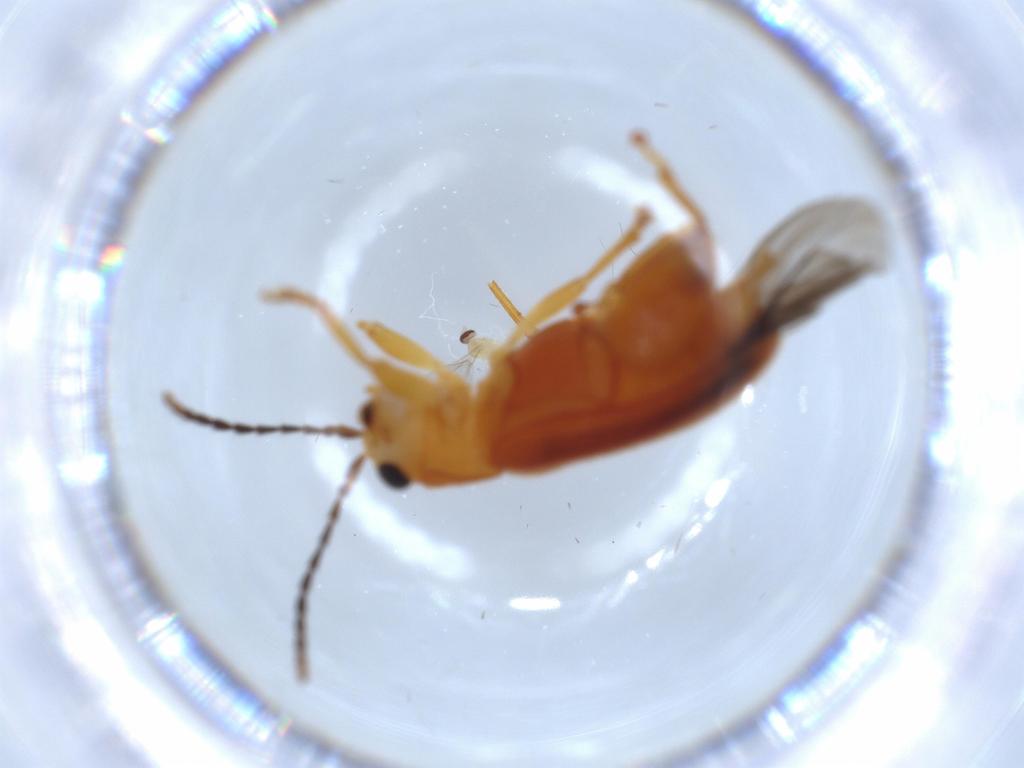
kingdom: Animalia
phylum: Arthropoda
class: Insecta
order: Coleoptera
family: Chrysomelidae
